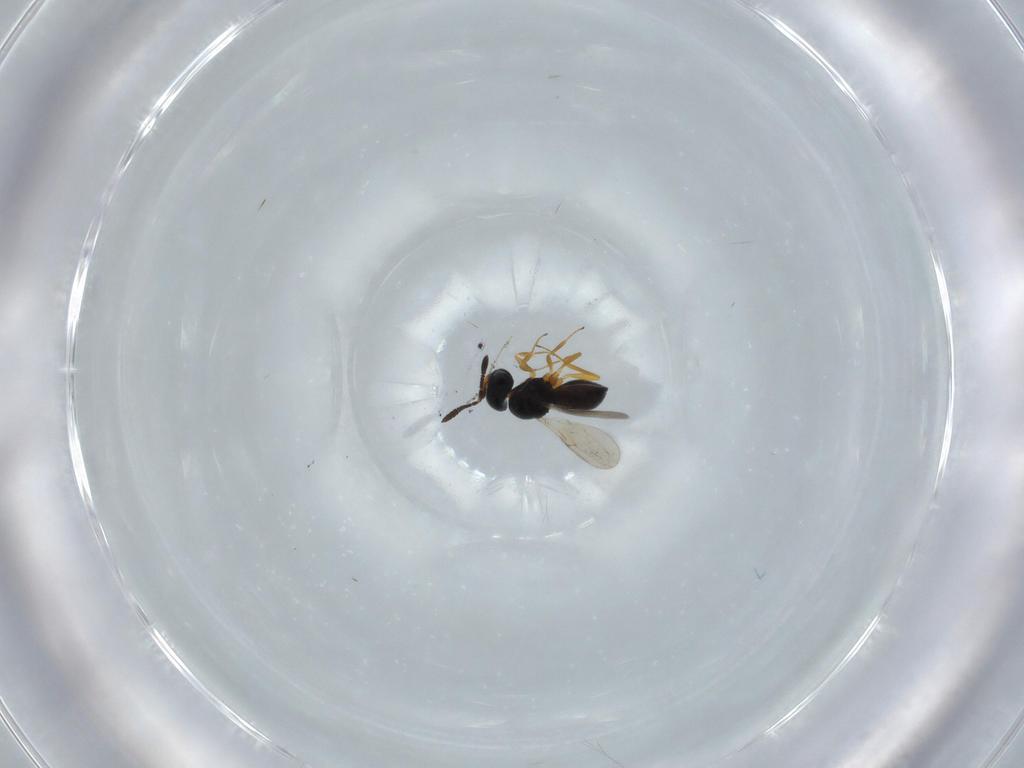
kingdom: Animalia
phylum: Arthropoda
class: Insecta
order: Hymenoptera
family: Scelionidae
